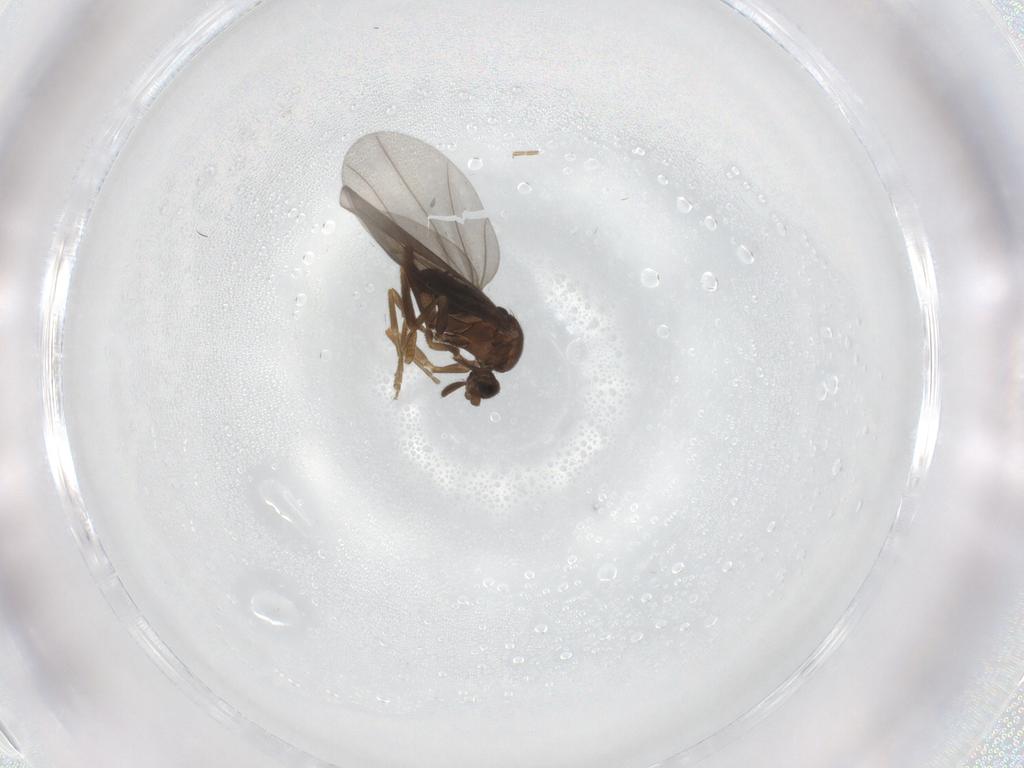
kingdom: Animalia
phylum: Arthropoda
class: Insecta
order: Diptera
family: Phoridae
